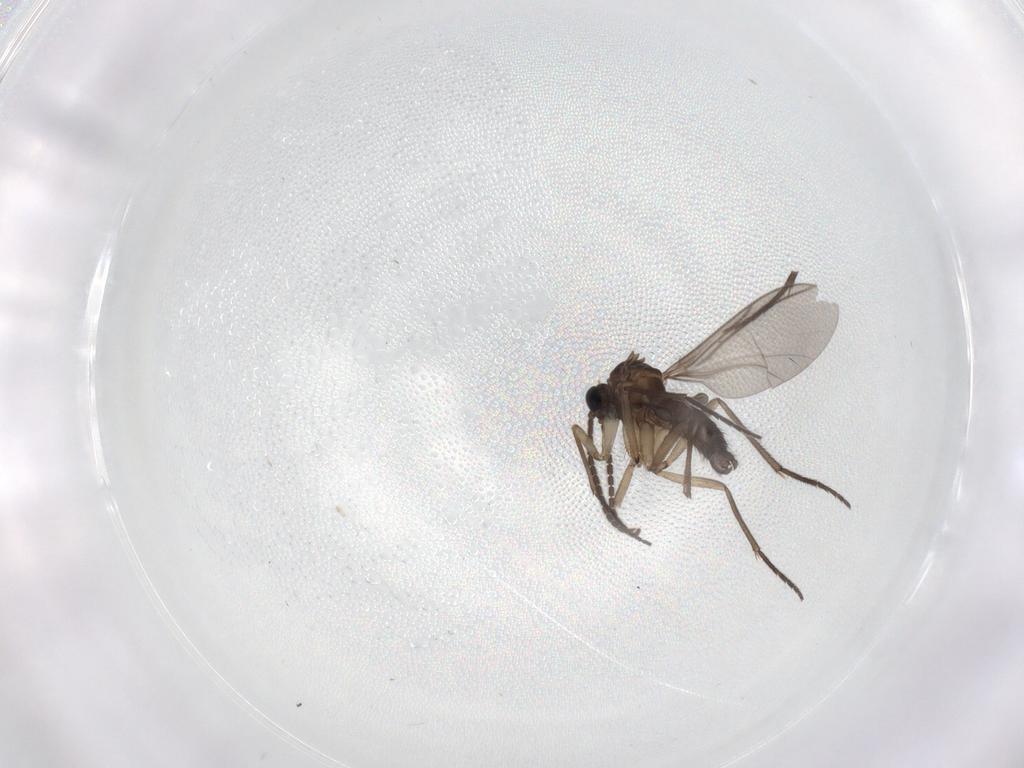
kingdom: Animalia
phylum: Arthropoda
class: Insecta
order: Diptera
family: Sciaridae
